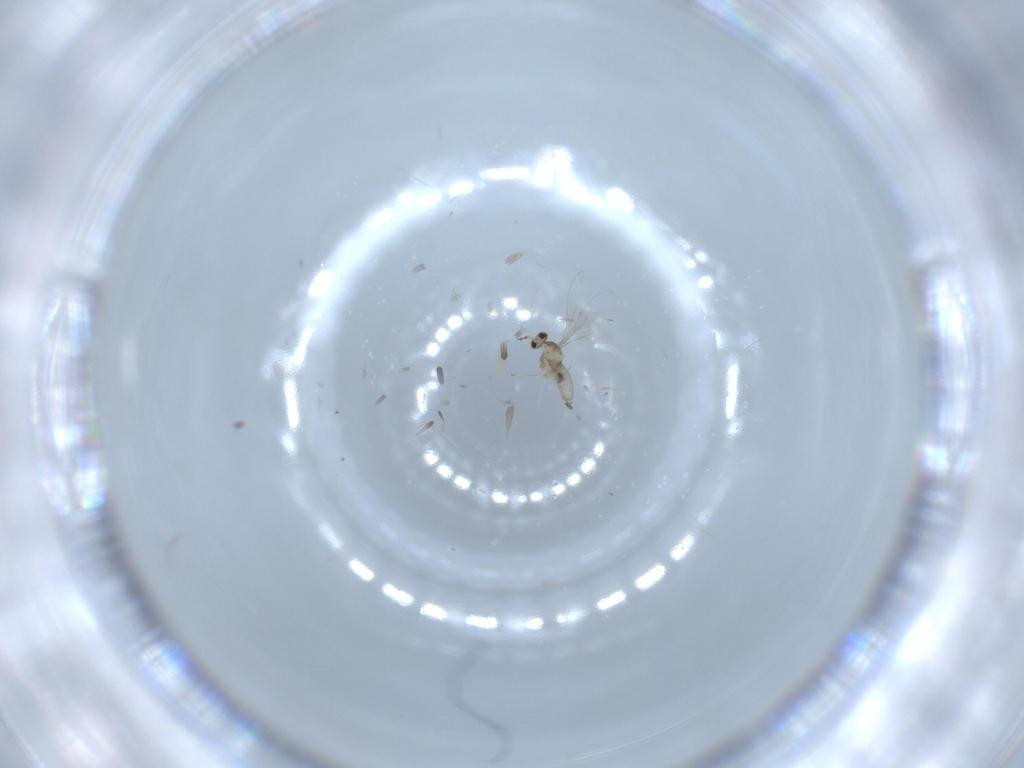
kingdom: Animalia
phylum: Arthropoda
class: Insecta
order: Diptera
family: Cecidomyiidae
